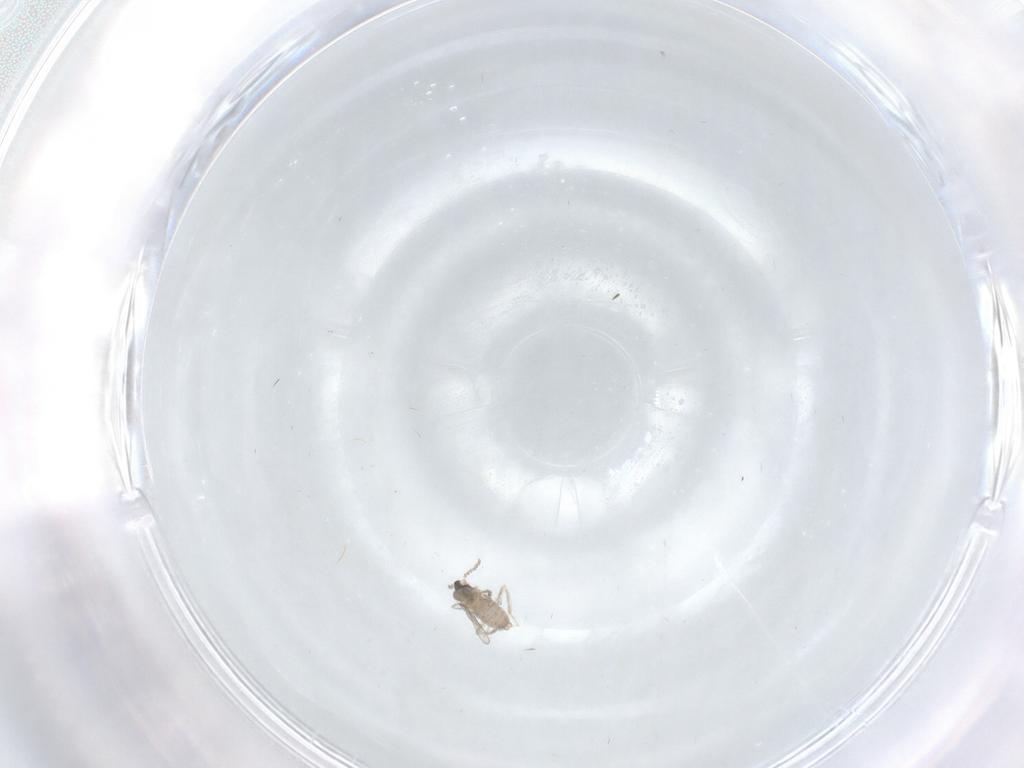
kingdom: Animalia
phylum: Arthropoda
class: Insecta
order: Diptera
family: Cecidomyiidae
